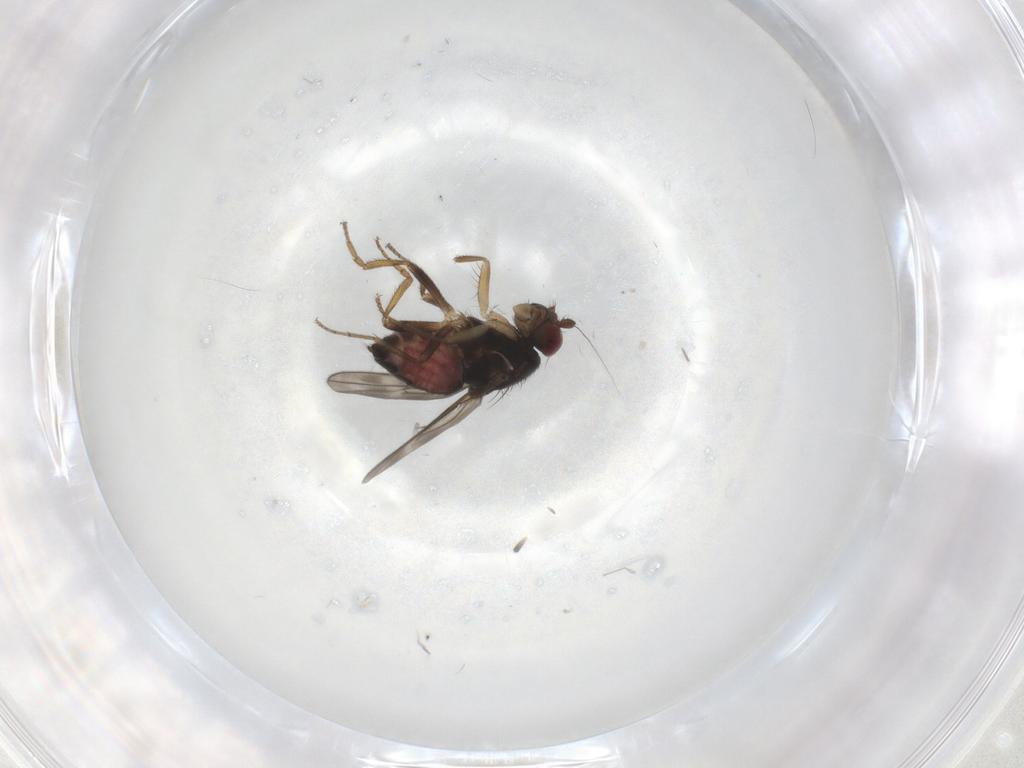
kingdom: Animalia
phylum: Arthropoda
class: Insecta
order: Diptera
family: Sphaeroceridae
